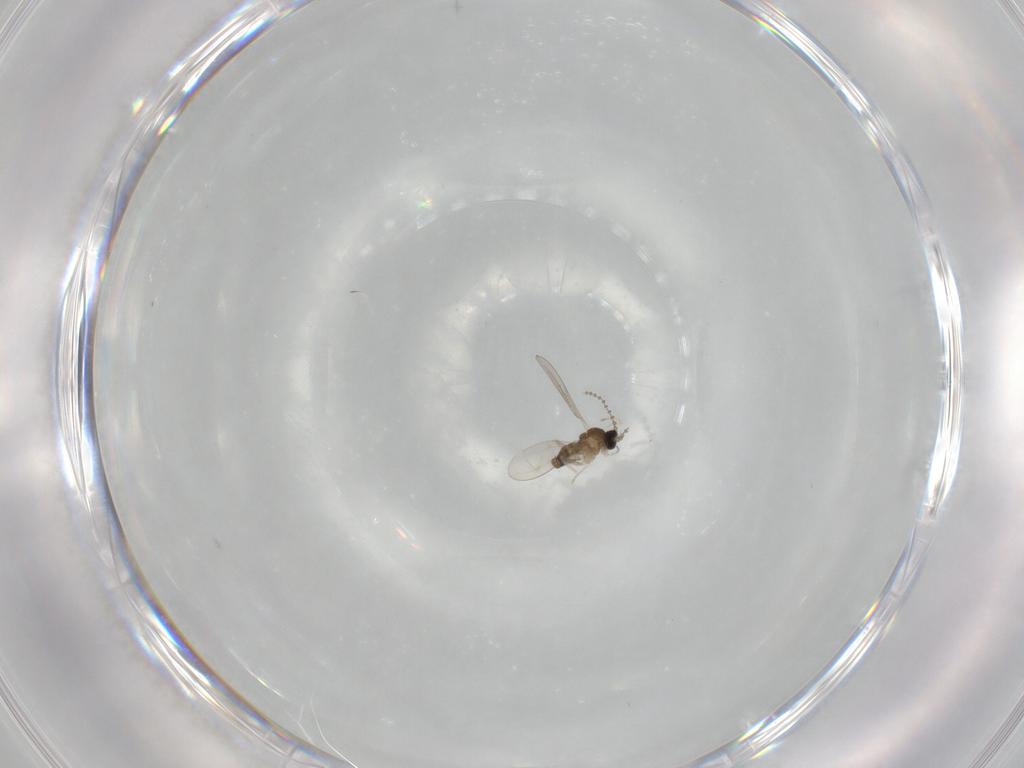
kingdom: Animalia
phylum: Arthropoda
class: Insecta
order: Diptera
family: Cecidomyiidae
